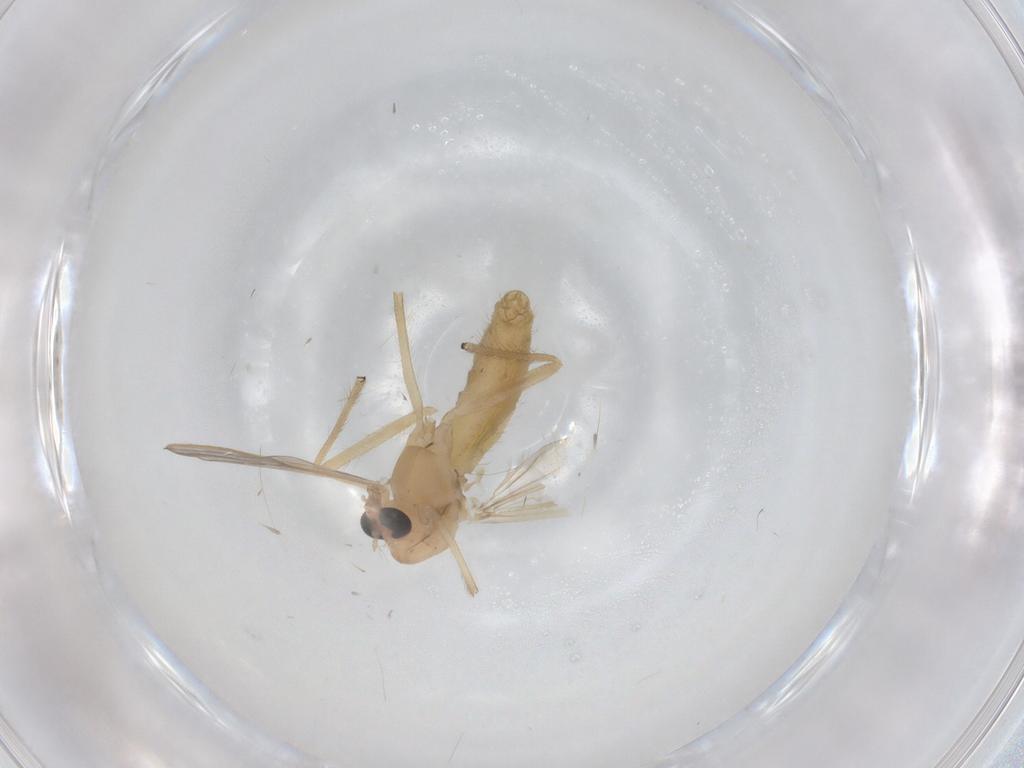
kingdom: Animalia
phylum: Arthropoda
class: Insecta
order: Diptera
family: Chironomidae
